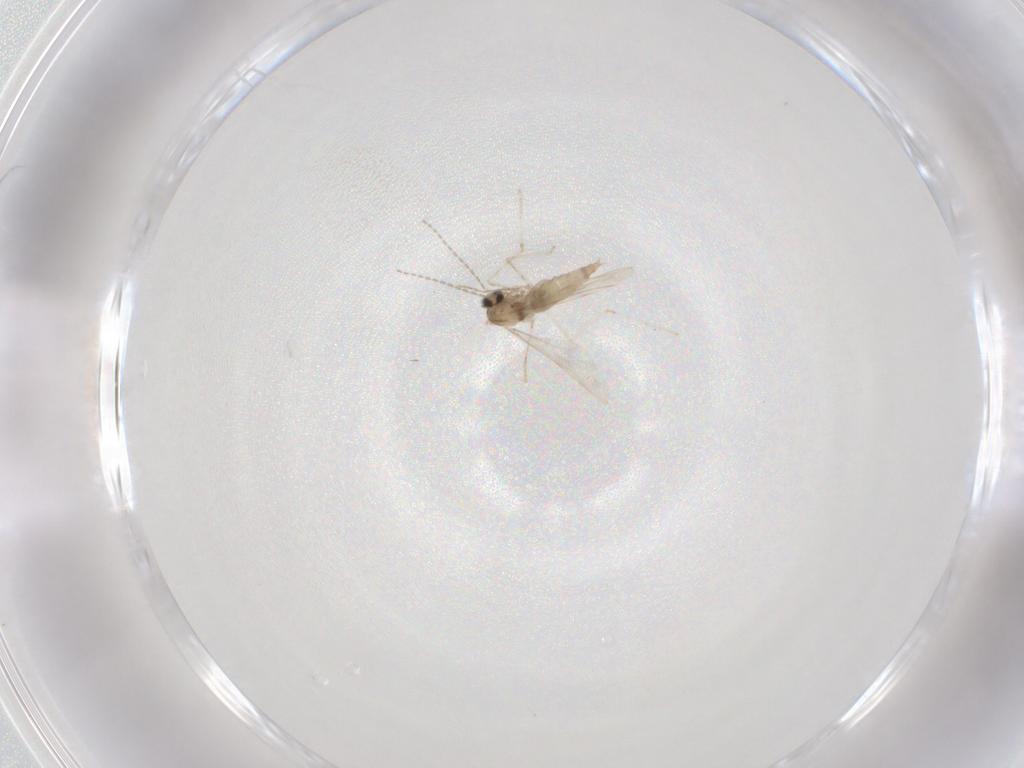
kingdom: Animalia
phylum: Arthropoda
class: Insecta
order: Diptera
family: Cecidomyiidae
